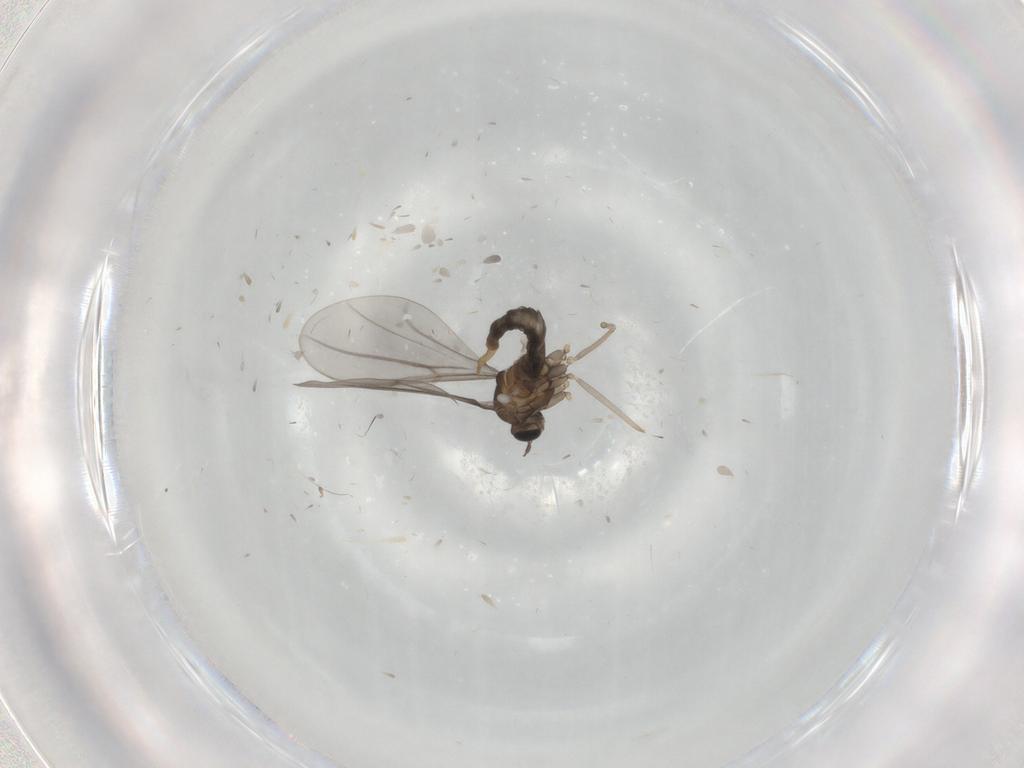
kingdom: Animalia
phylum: Arthropoda
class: Insecta
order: Diptera
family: Cecidomyiidae
